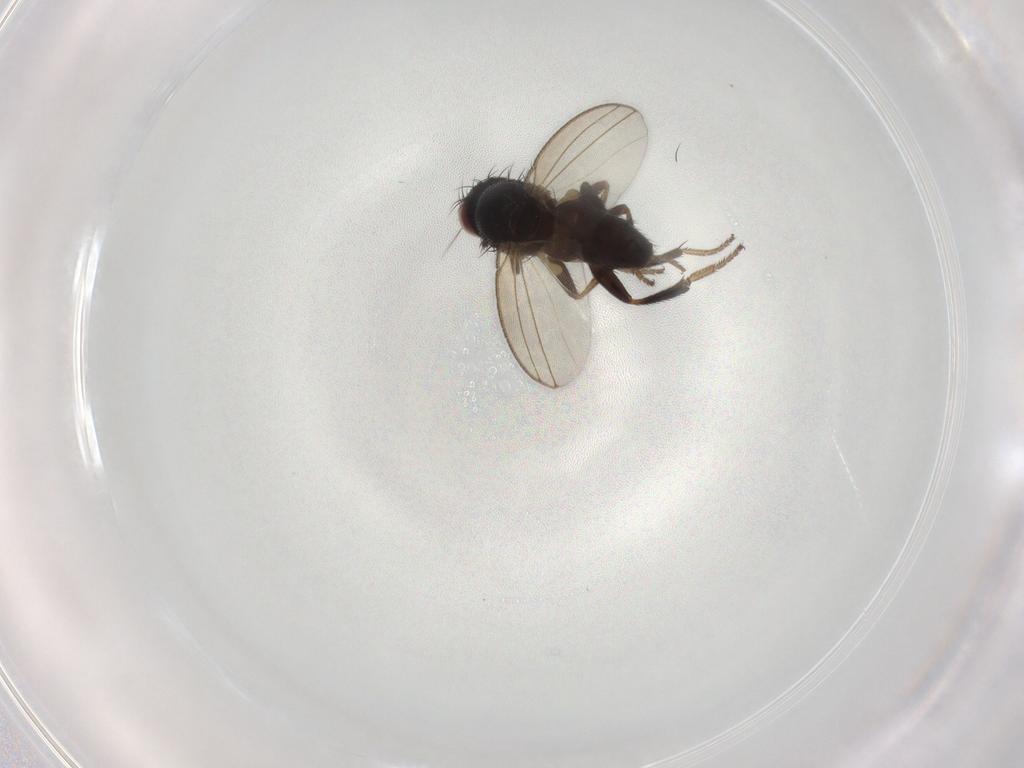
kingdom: Animalia
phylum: Arthropoda
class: Insecta
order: Diptera
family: Milichiidae
